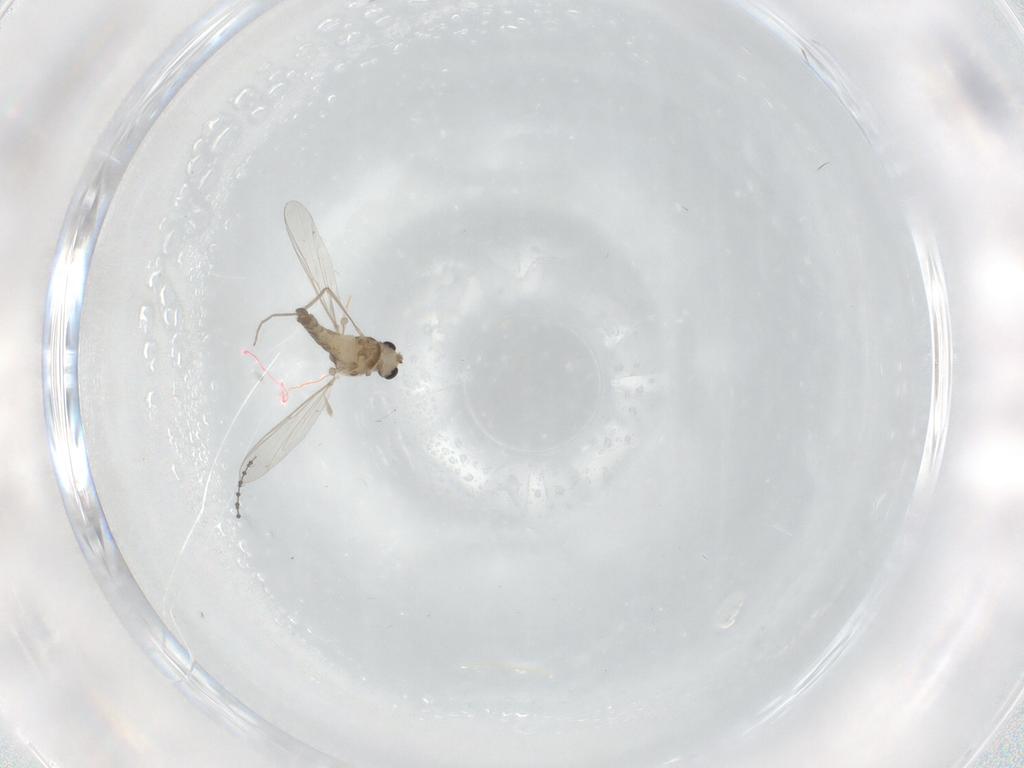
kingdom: Animalia
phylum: Arthropoda
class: Insecta
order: Diptera
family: Chironomidae
